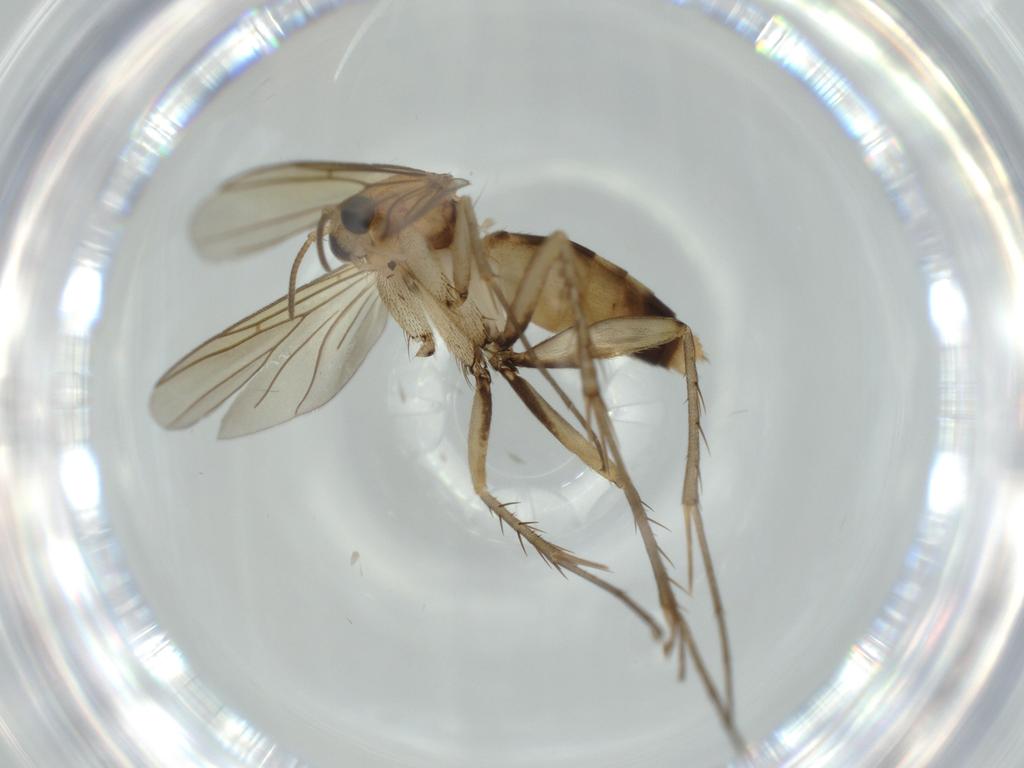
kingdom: Animalia
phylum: Arthropoda
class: Insecta
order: Diptera
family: Mycetophilidae
